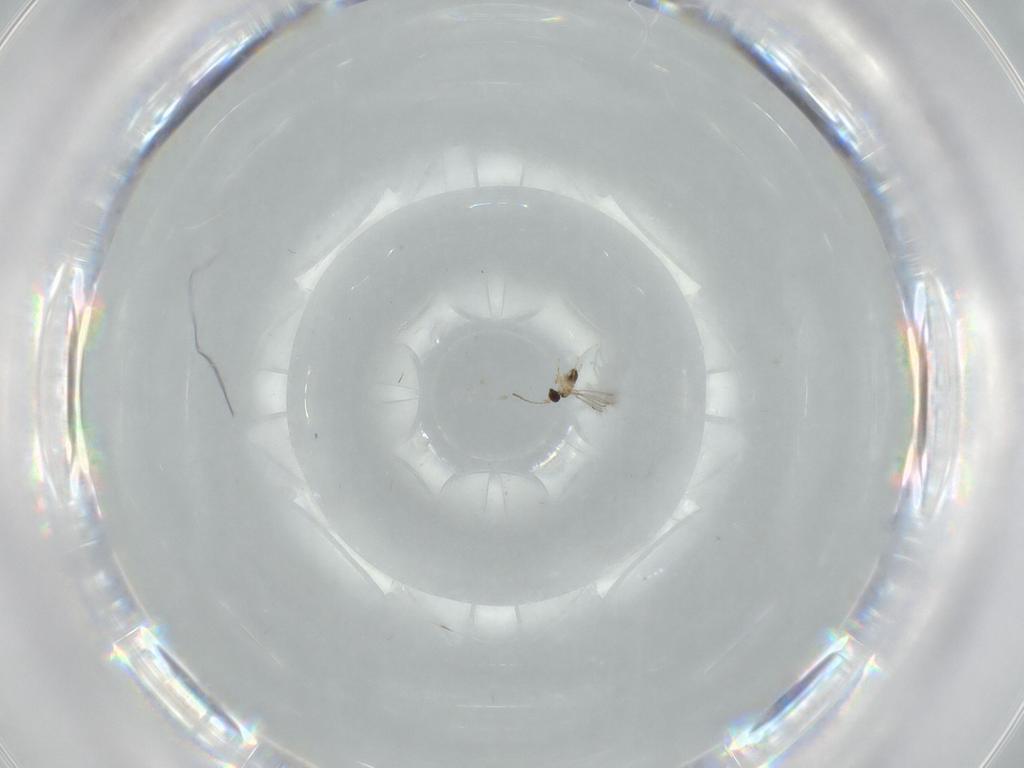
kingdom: Animalia
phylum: Arthropoda
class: Insecta
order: Hymenoptera
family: Mymaridae
